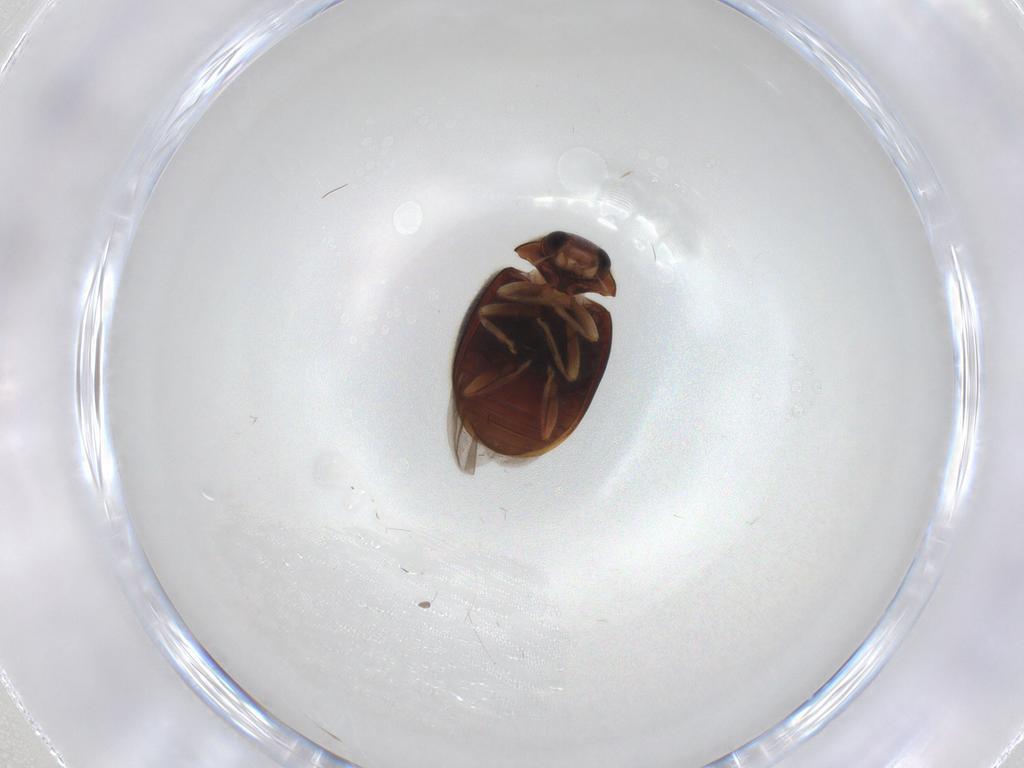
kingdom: Animalia
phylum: Arthropoda
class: Insecta
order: Coleoptera
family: Coccinellidae
